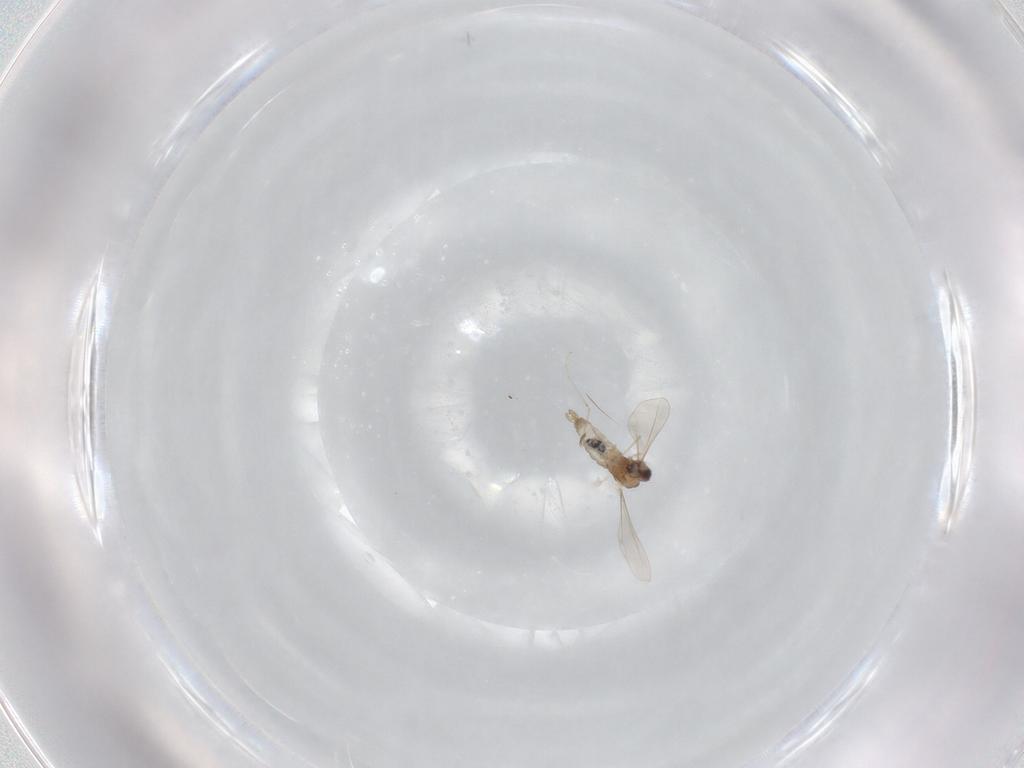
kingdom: Animalia
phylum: Arthropoda
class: Insecta
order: Diptera
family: Cecidomyiidae
